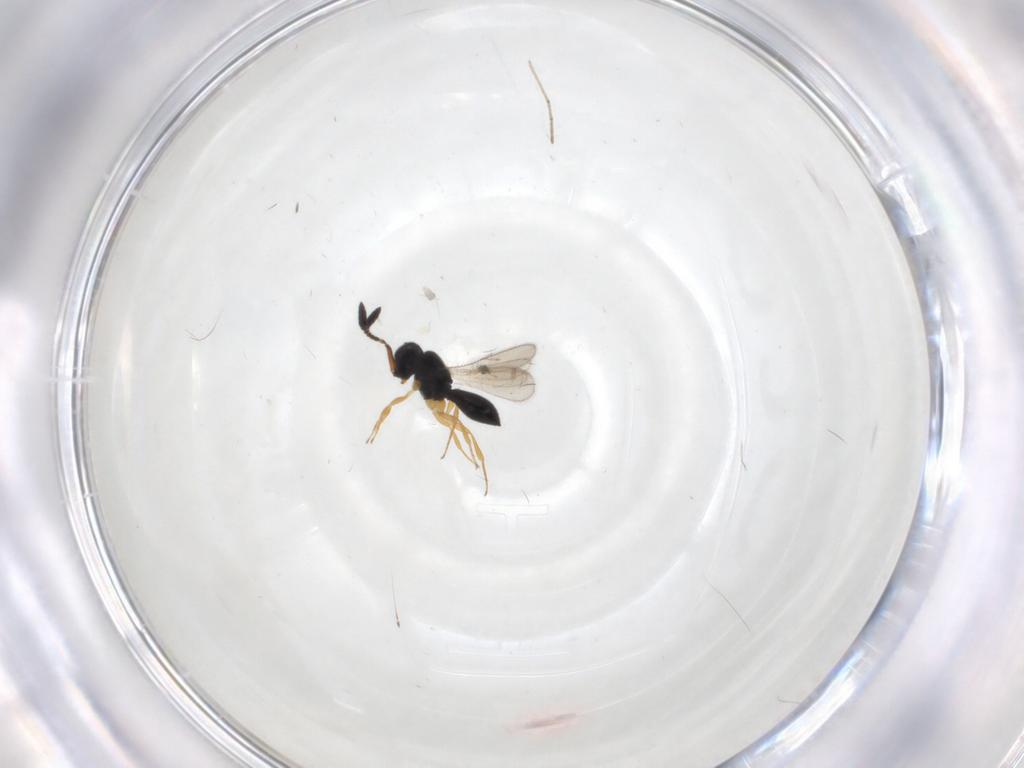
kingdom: Animalia
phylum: Arthropoda
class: Insecta
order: Hymenoptera
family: Scelionidae
